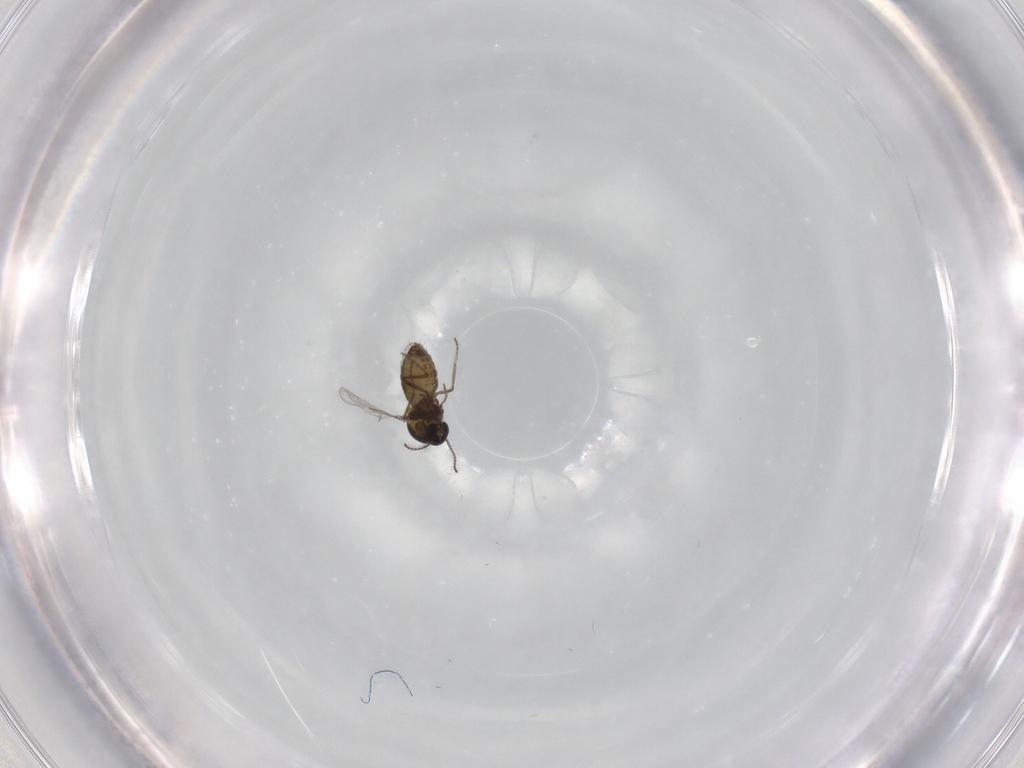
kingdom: Animalia
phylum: Arthropoda
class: Insecta
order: Diptera
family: Ceratopogonidae
